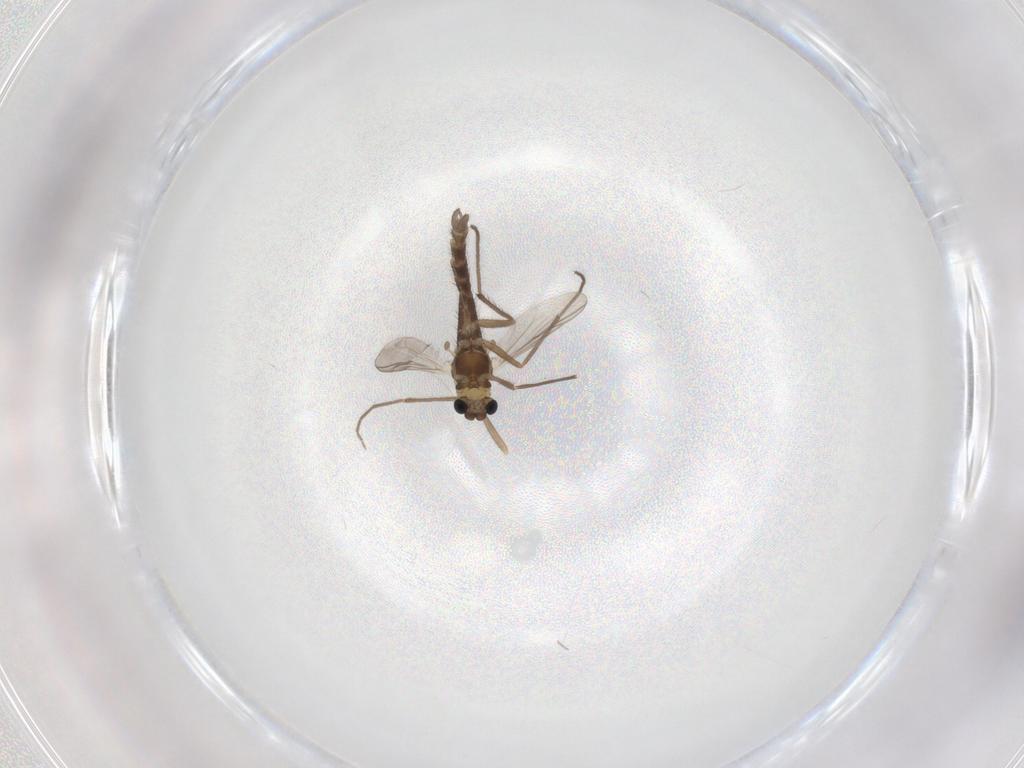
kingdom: Animalia
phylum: Arthropoda
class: Insecta
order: Diptera
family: Chironomidae
